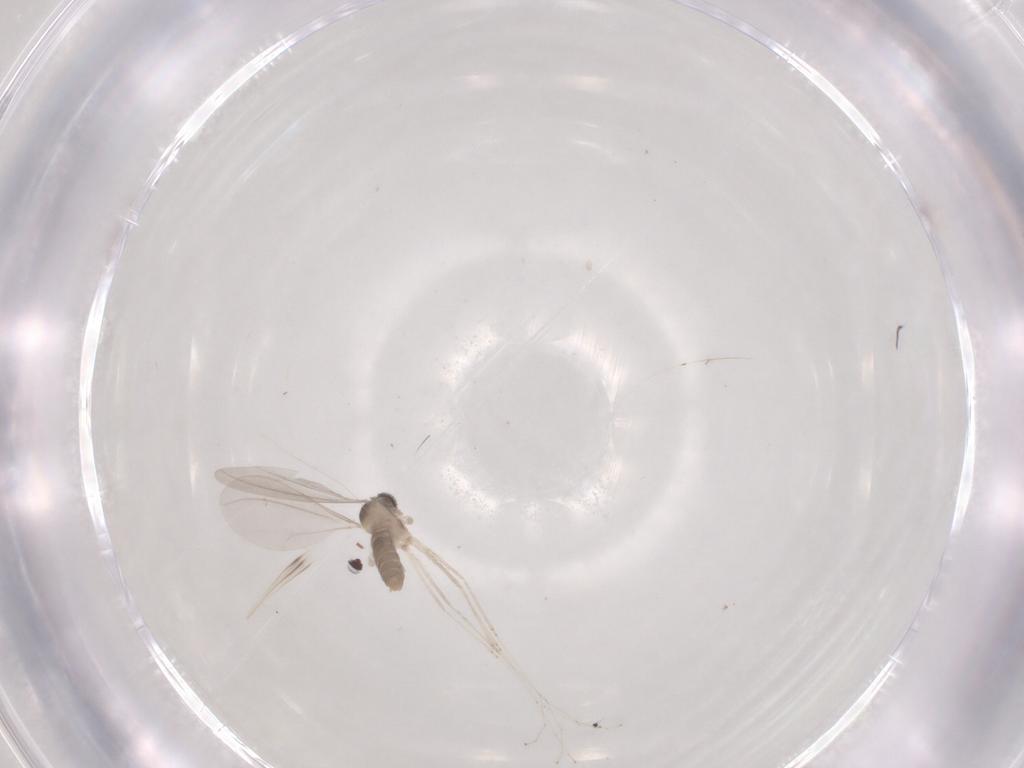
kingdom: Animalia
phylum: Arthropoda
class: Insecta
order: Diptera
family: Cecidomyiidae
